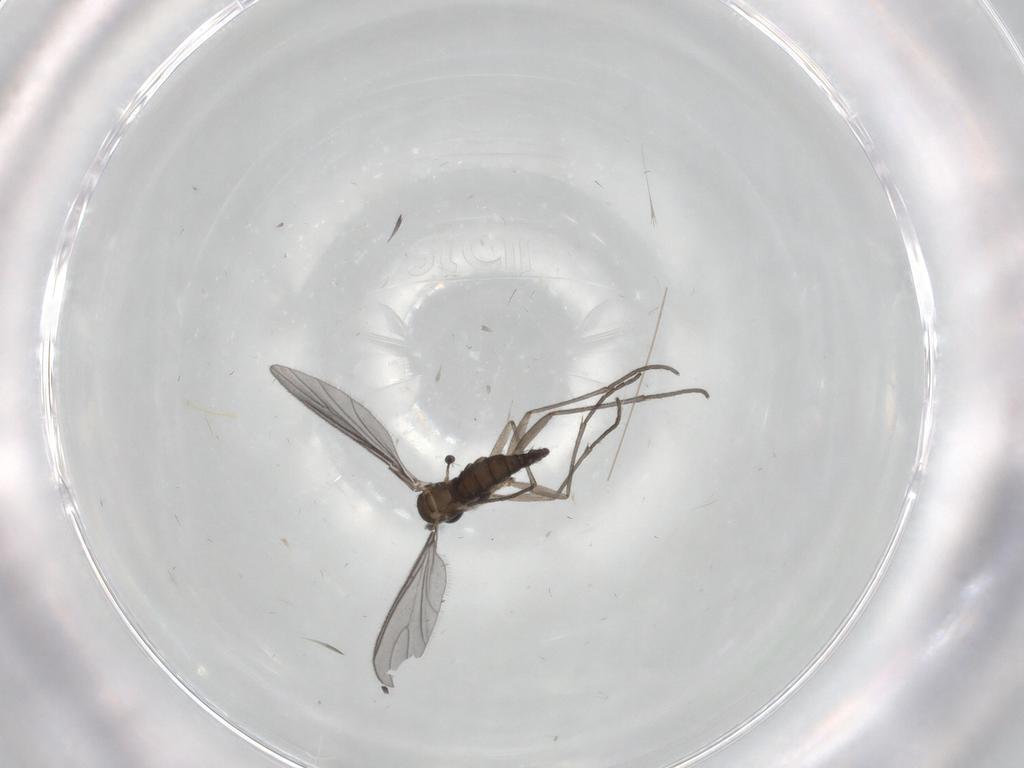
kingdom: Animalia
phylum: Arthropoda
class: Insecta
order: Diptera
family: Sciaridae
